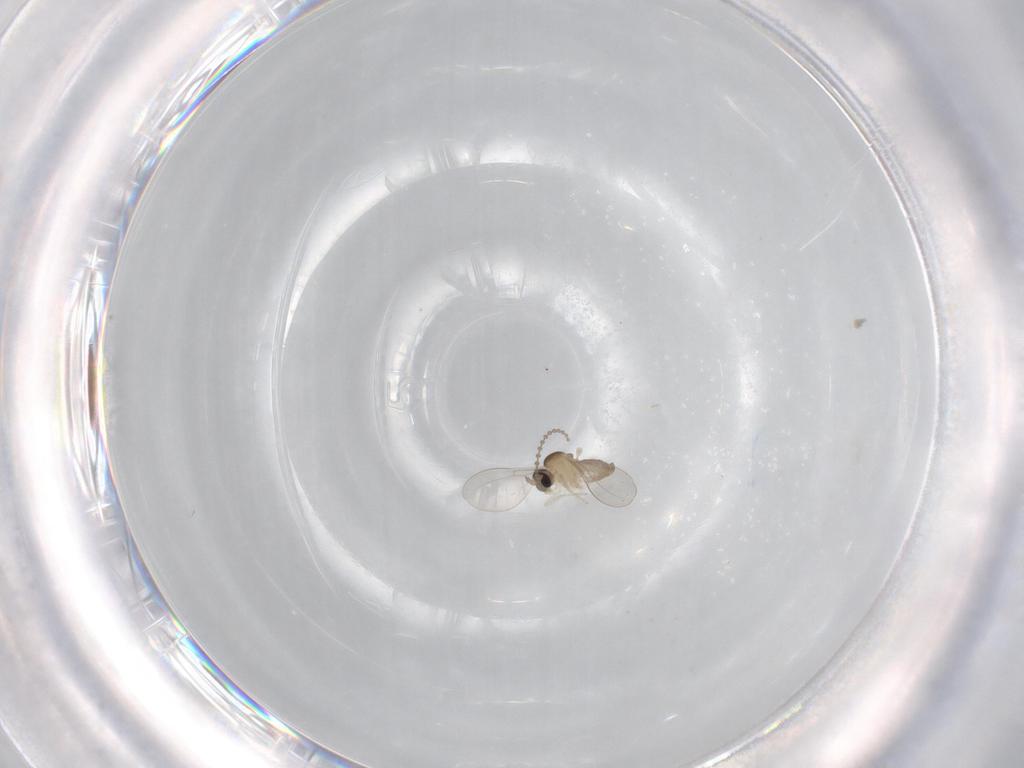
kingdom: Animalia
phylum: Arthropoda
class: Insecta
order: Diptera
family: Cecidomyiidae
